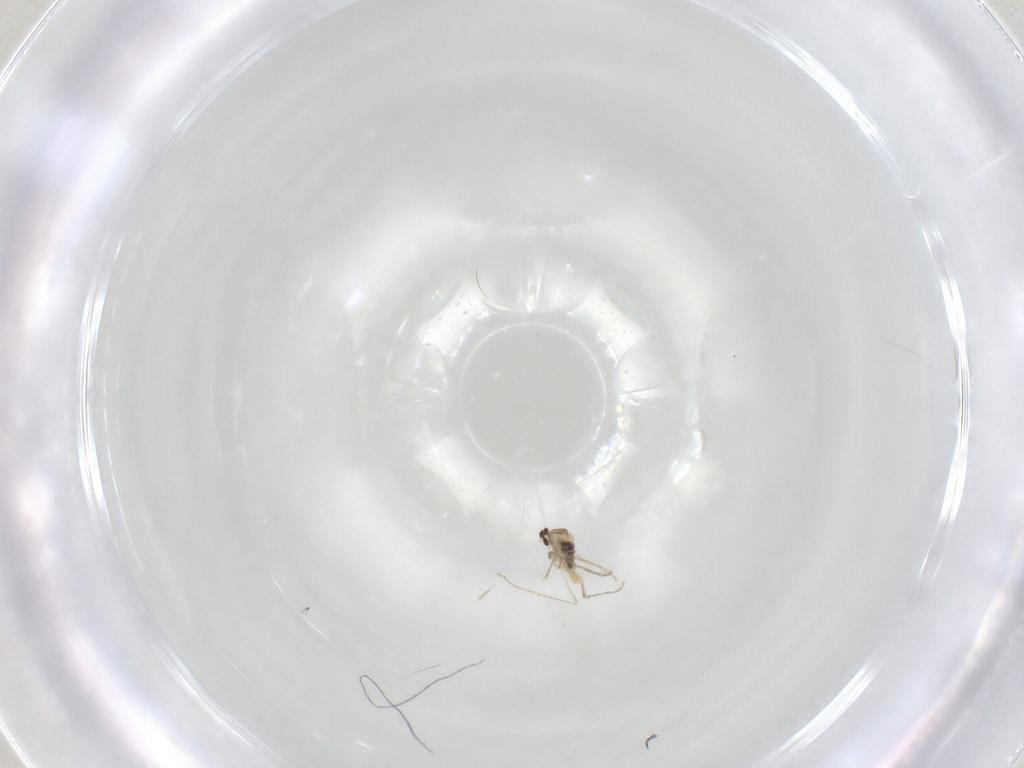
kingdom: Animalia
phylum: Arthropoda
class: Insecta
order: Diptera
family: Cecidomyiidae
